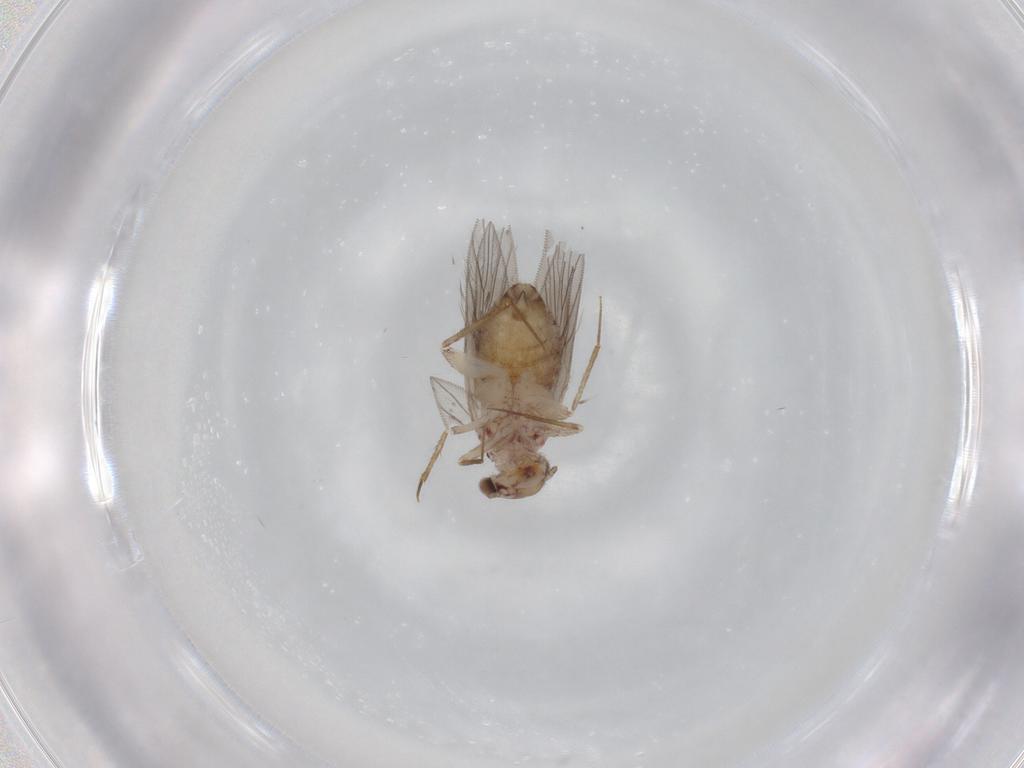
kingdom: Animalia
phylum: Arthropoda
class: Insecta
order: Psocodea
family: Lepidopsocidae
